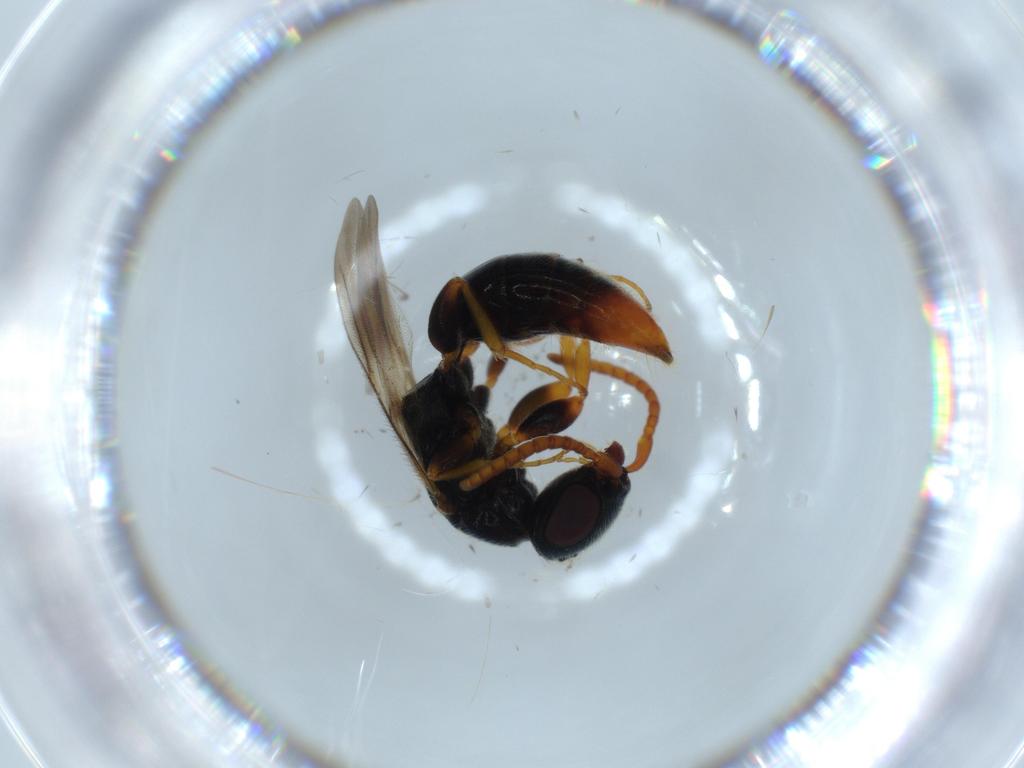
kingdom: Animalia
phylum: Arthropoda
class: Insecta
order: Hymenoptera
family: Bethylidae
